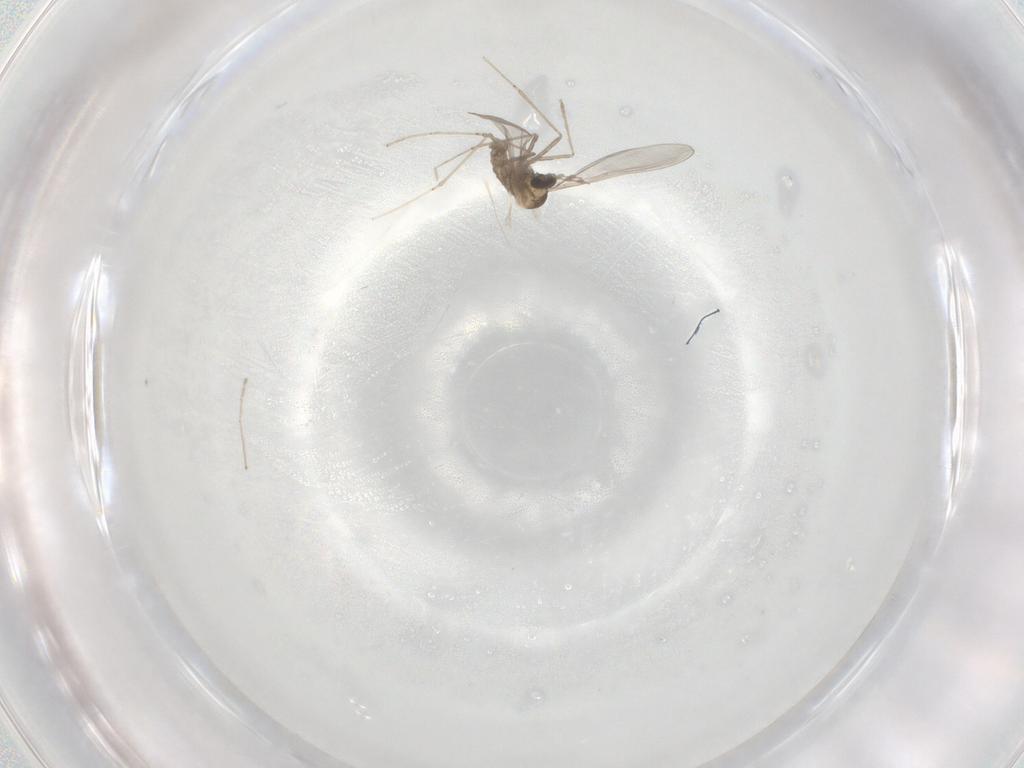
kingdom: Animalia
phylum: Arthropoda
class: Insecta
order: Diptera
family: Cecidomyiidae
